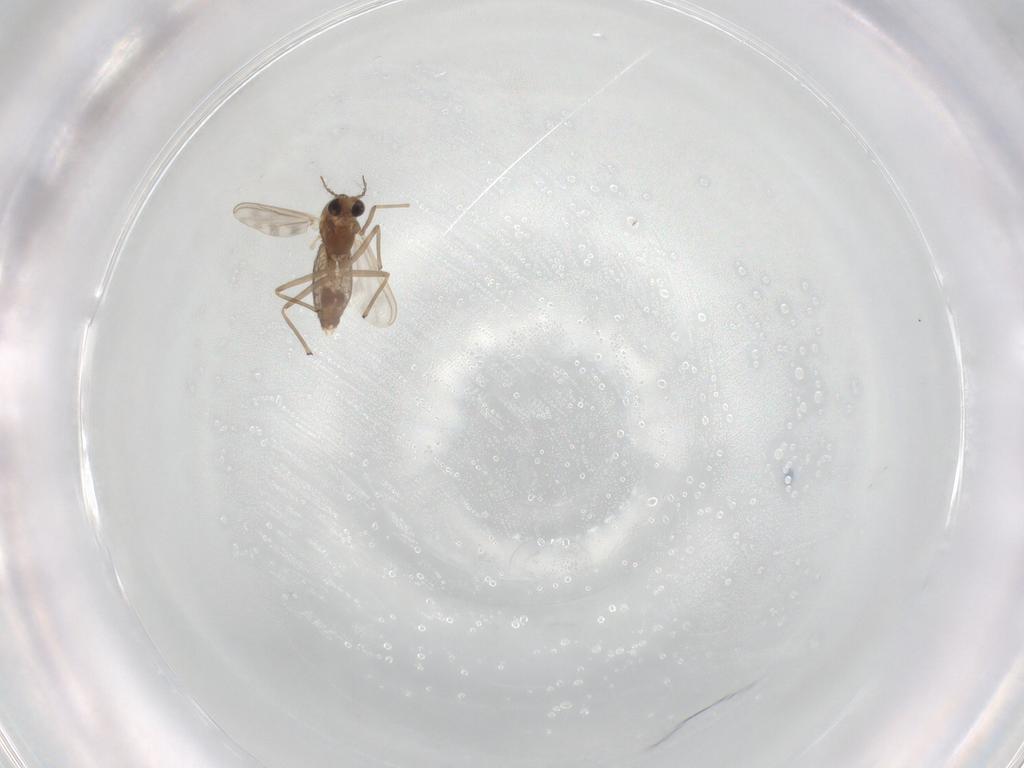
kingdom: Animalia
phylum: Arthropoda
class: Insecta
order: Diptera
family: Chironomidae
